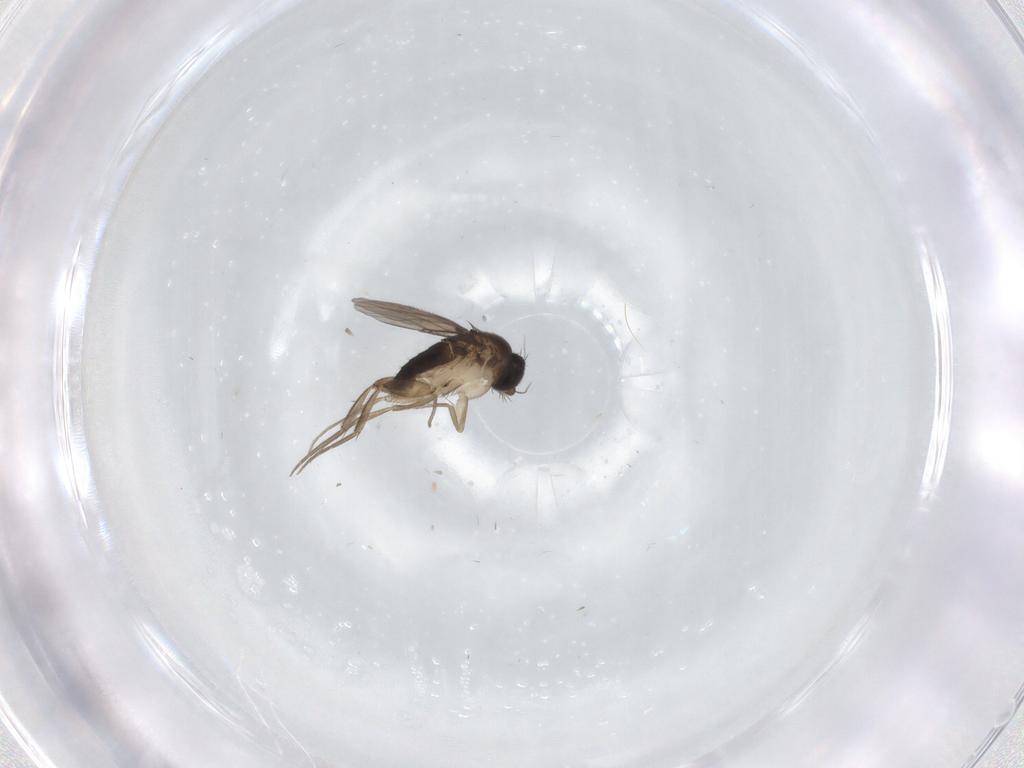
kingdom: Animalia
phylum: Arthropoda
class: Insecta
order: Diptera
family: Phoridae
